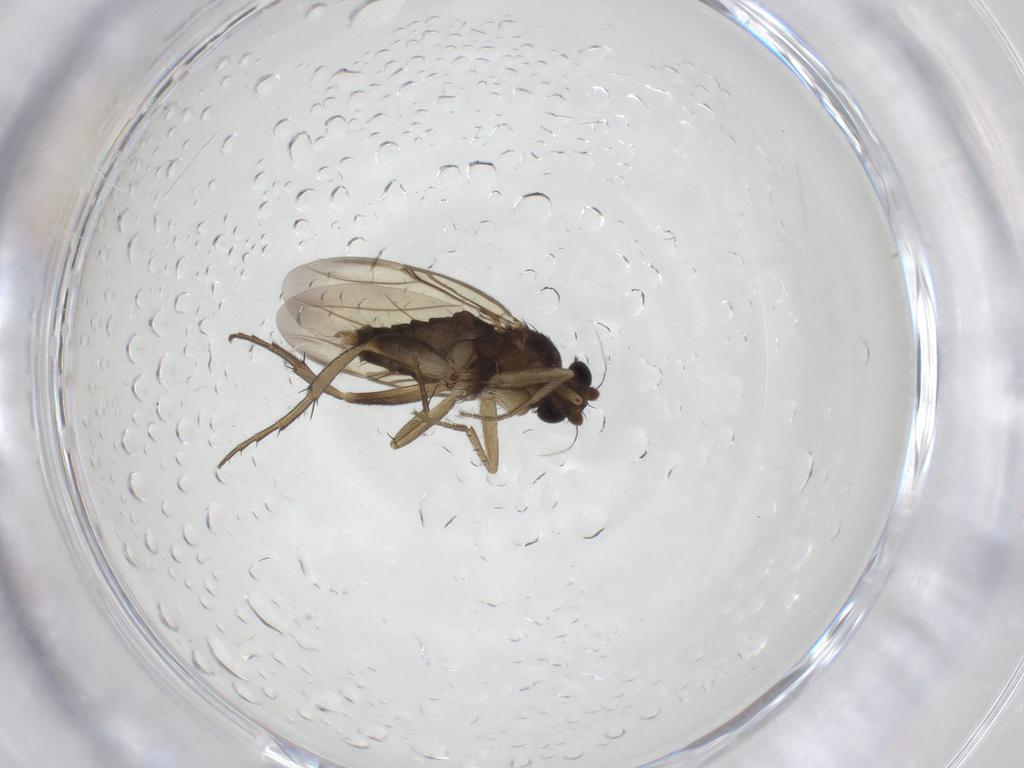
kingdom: Animalia
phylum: Arthropoda
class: Insecta
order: Diptera
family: Phoridae
